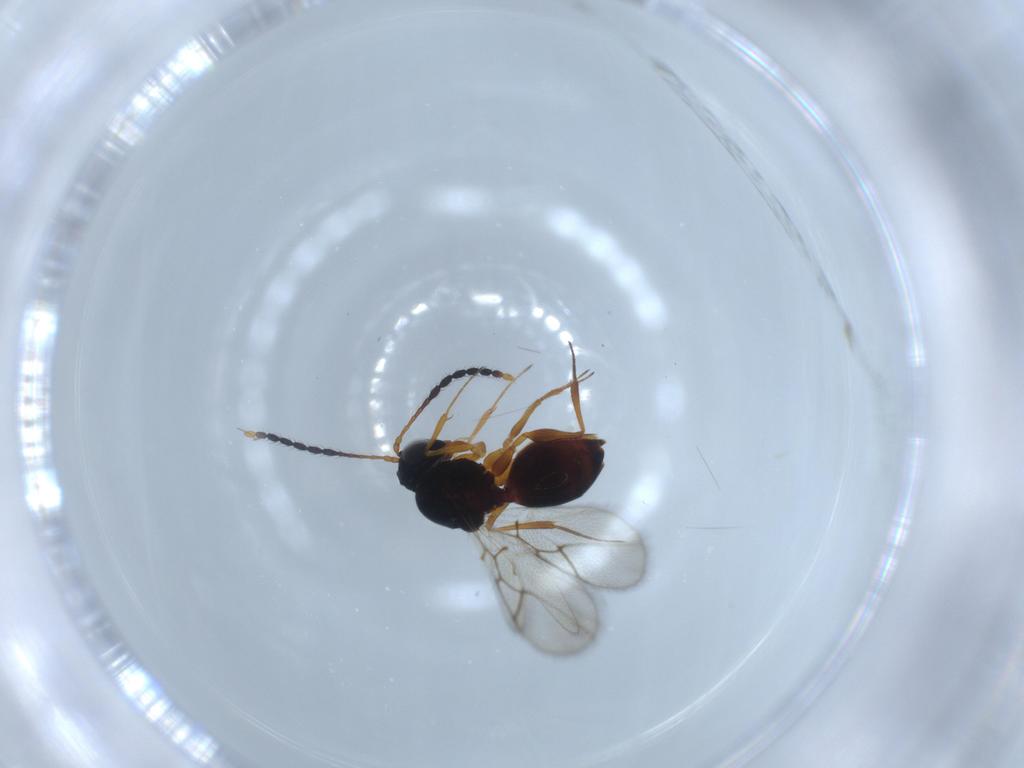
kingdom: Animalia
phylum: Arthropoda
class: Insecta
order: Hymenoptera
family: Figitidae
